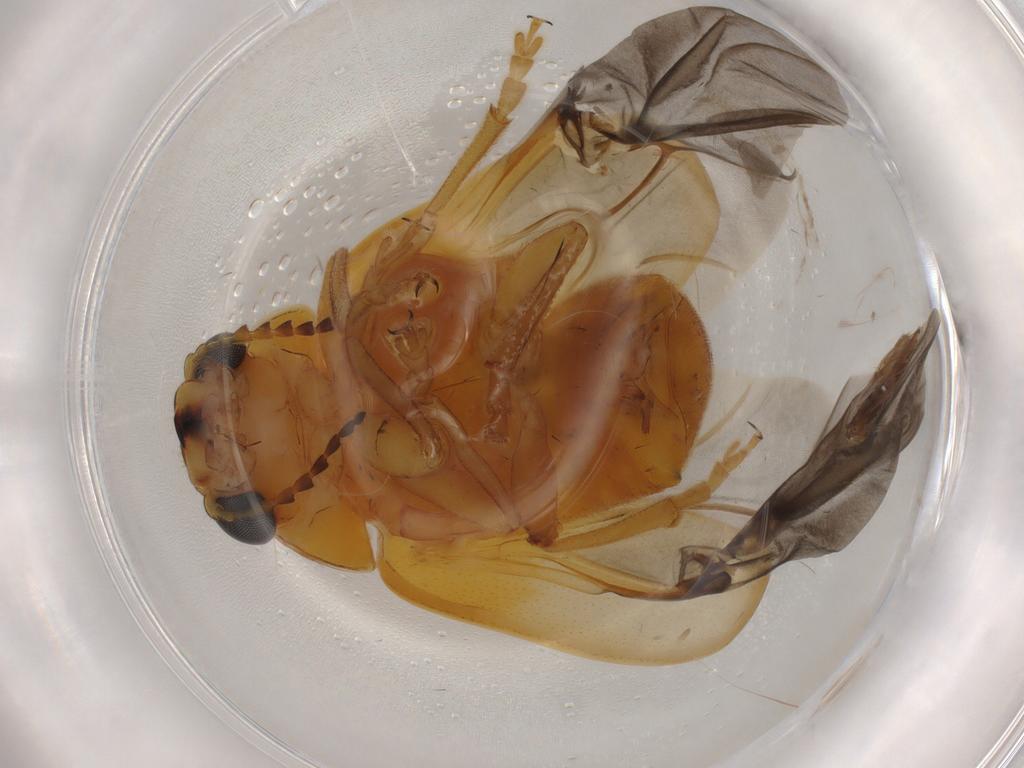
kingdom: Animalia
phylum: Arthropoda
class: Insecta
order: Coleoptera
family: Chrysomelidae
